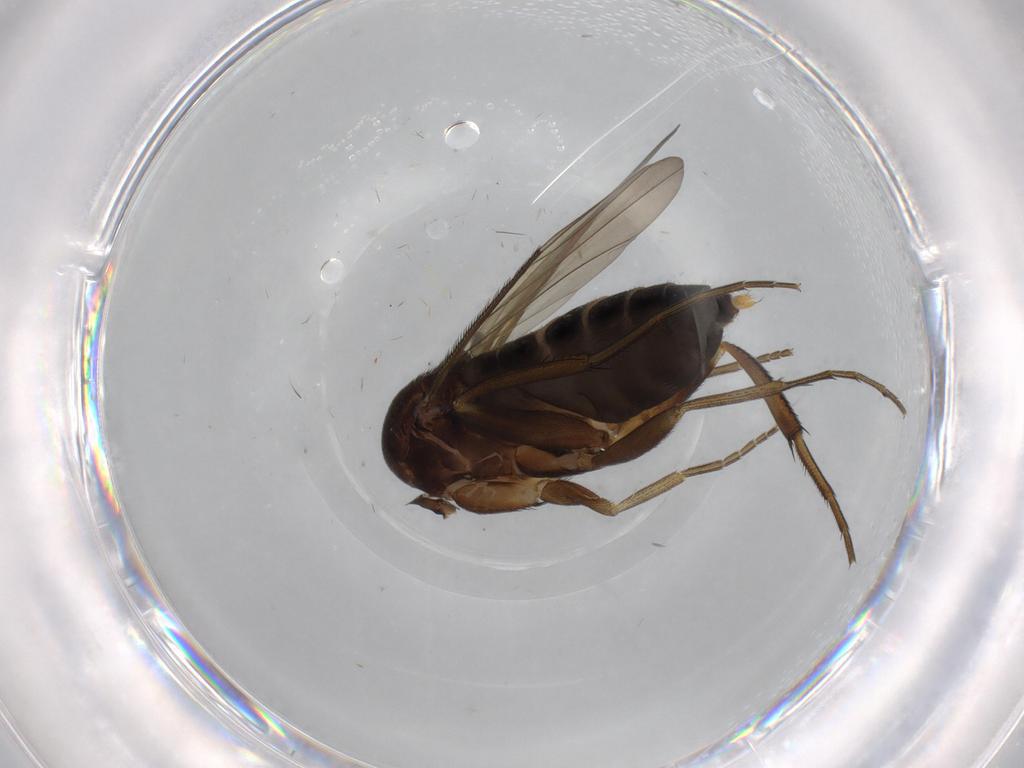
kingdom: Animalia
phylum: Arthropoda
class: Insecta
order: Diptera
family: Phoridae
